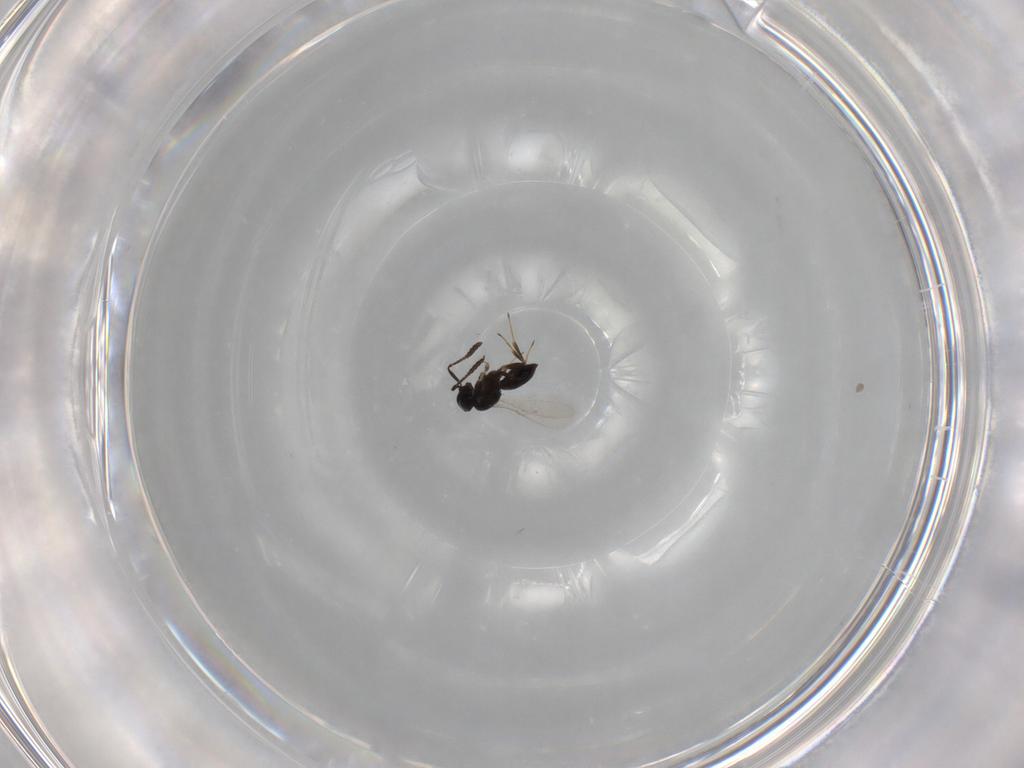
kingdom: Animalia
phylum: Arthropoda
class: Insecta
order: Hymenoptera
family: Scelionidae
